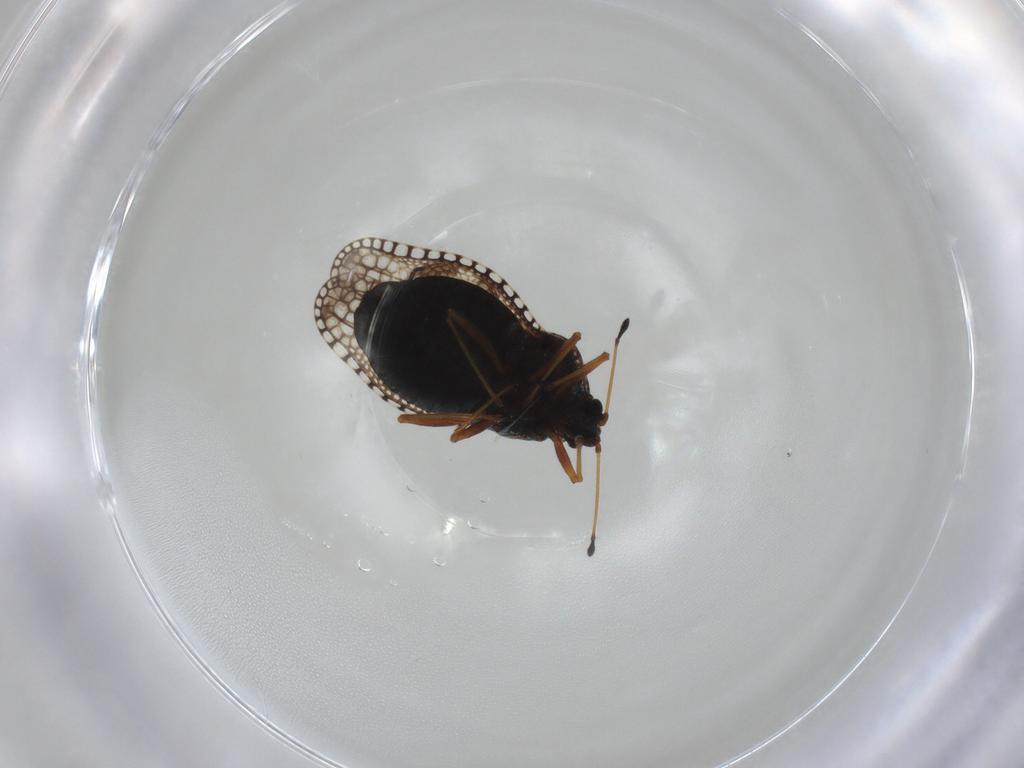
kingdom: Animalia
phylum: Arthropoda
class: Insecta
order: Hemiptera
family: Tingidae
